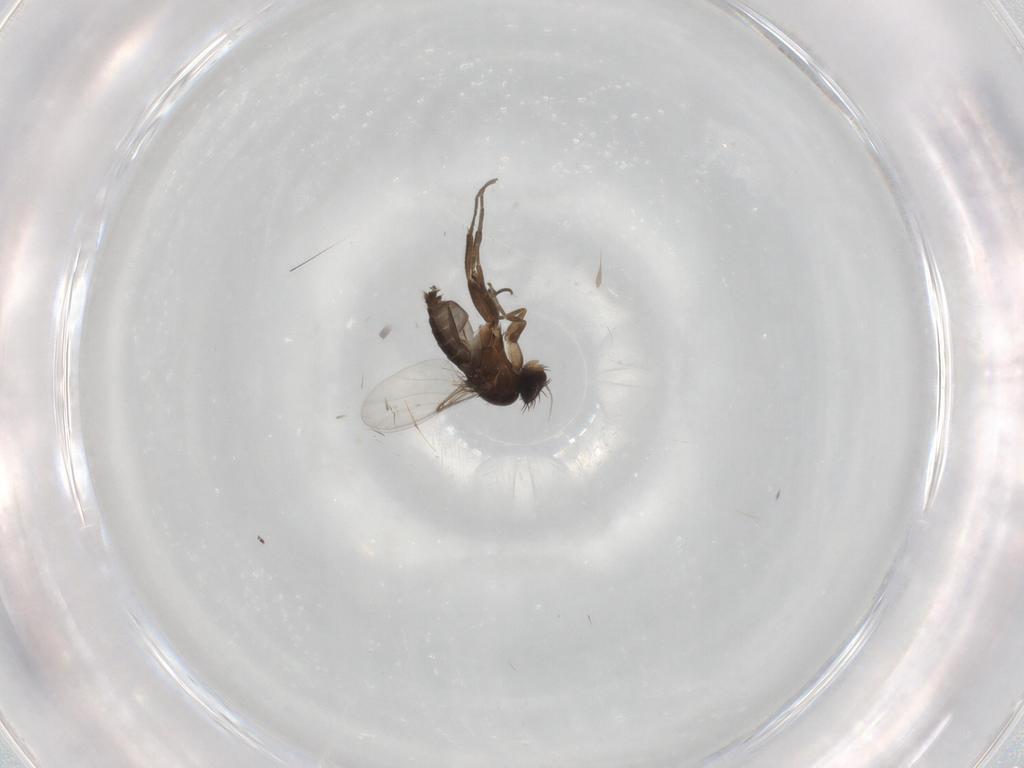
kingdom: Animalia
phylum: Arthropoda
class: Insecta
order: Diptera
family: Phoridae
